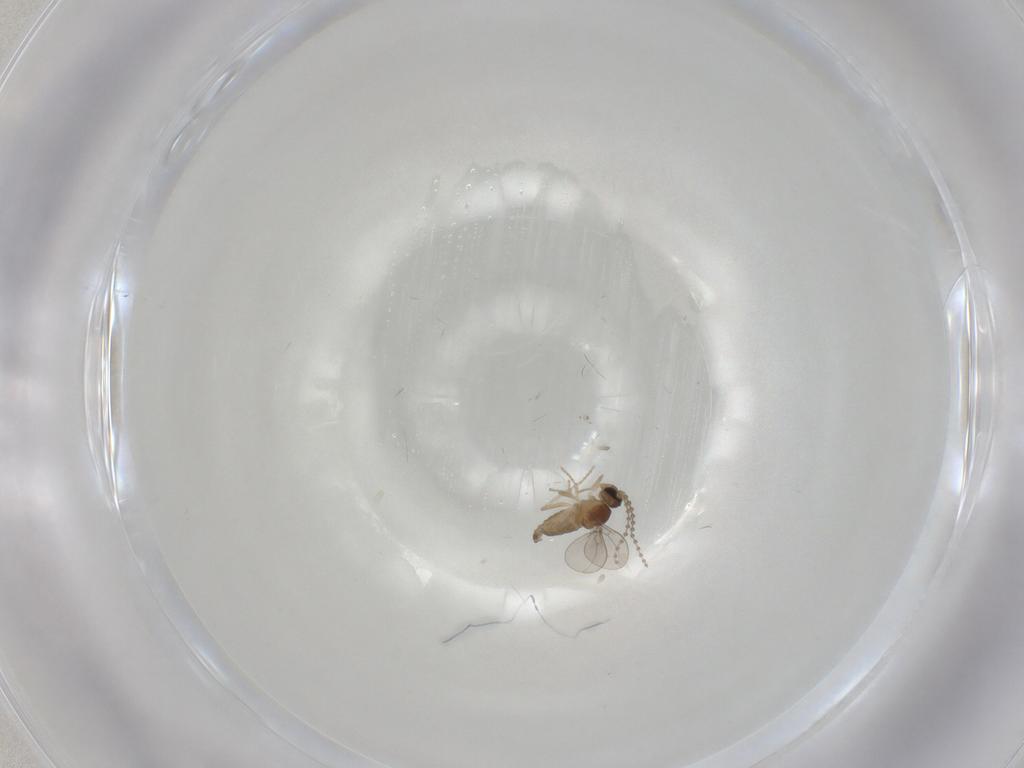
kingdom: Animalia
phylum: Arthropoda
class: Insecta
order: Diptera
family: Cecidomyiidae
